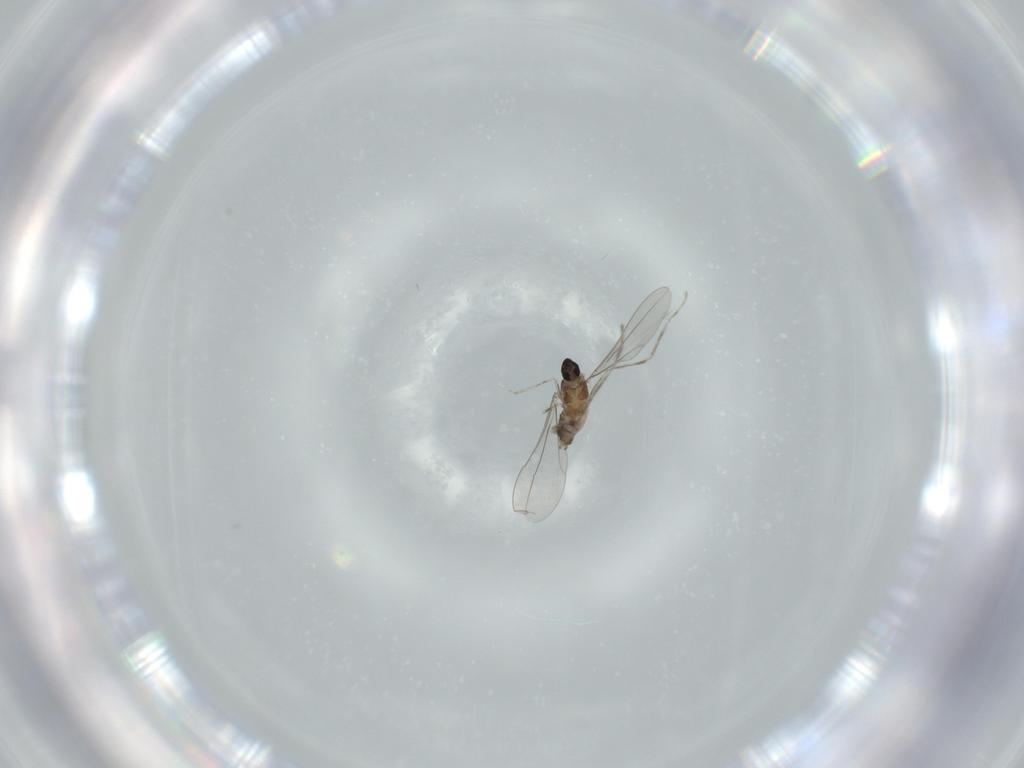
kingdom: Animalia
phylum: Arthropoda
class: Insecta
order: Diptera
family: Cecidomyiidae
